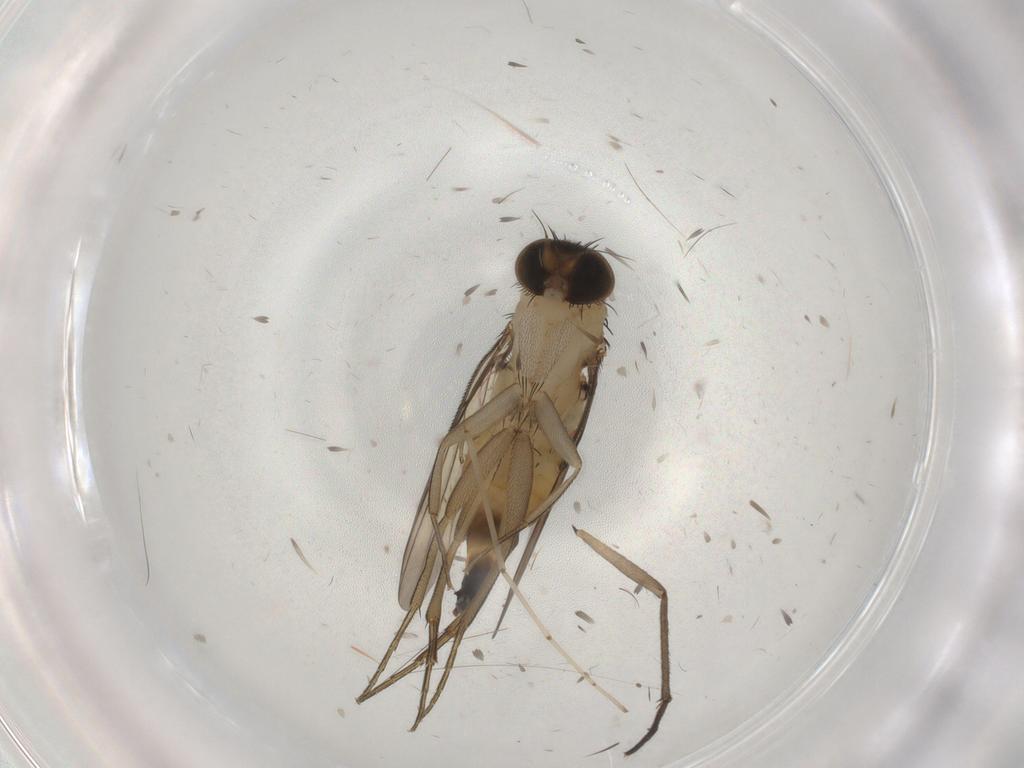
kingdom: Animalia
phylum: Arthropoda
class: Insecta
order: Diptera
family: Phoridae
